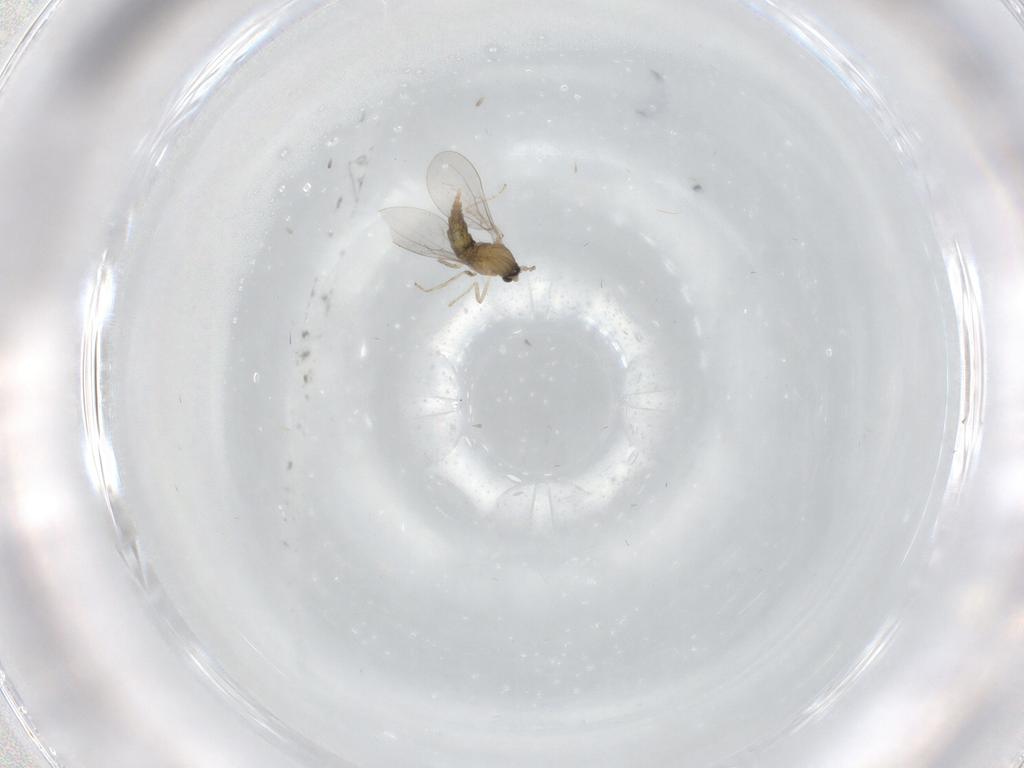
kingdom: Animalia
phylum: Arthropoda
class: Insecta
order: Diptera
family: Cecidomyiidae
